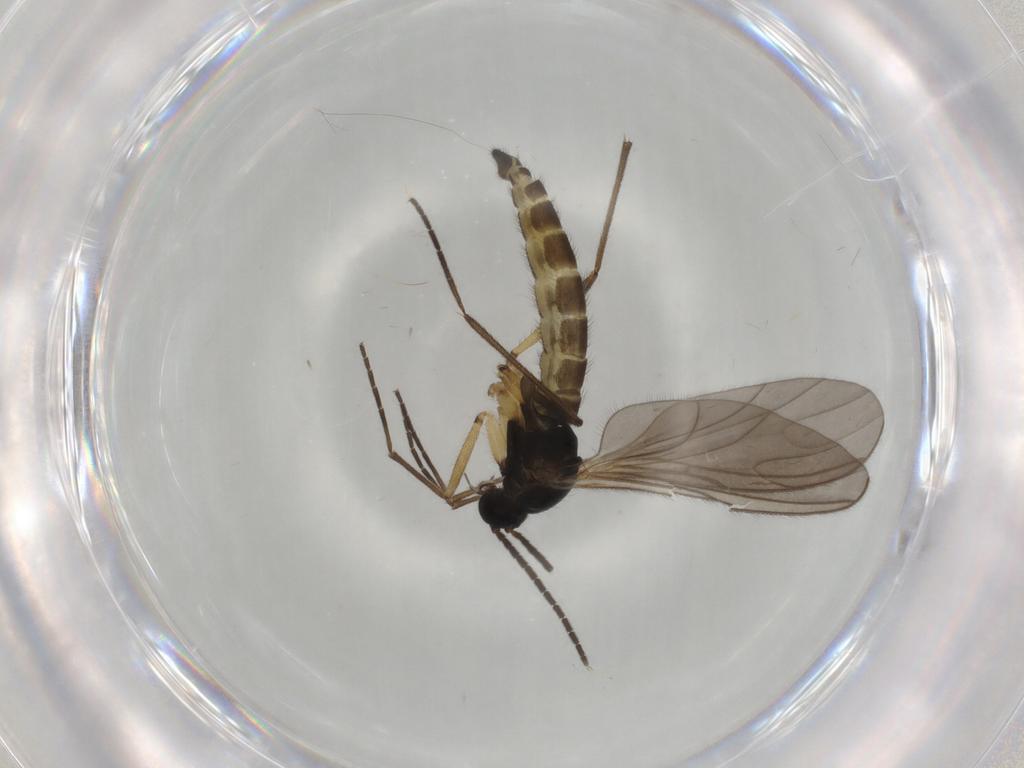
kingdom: Animalia
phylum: Arthropoda
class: Insecta
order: Diptera
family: Sciaridae
